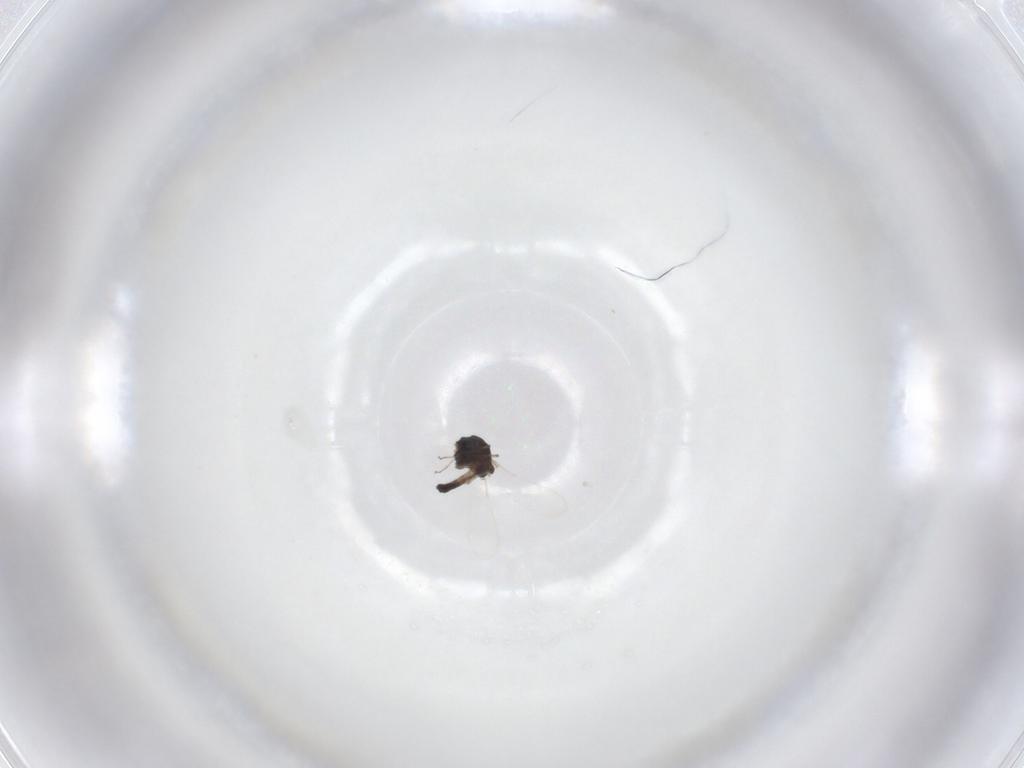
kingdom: Animalia
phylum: Arthropoda
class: Insecta
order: Diptera
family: Chironomidae
